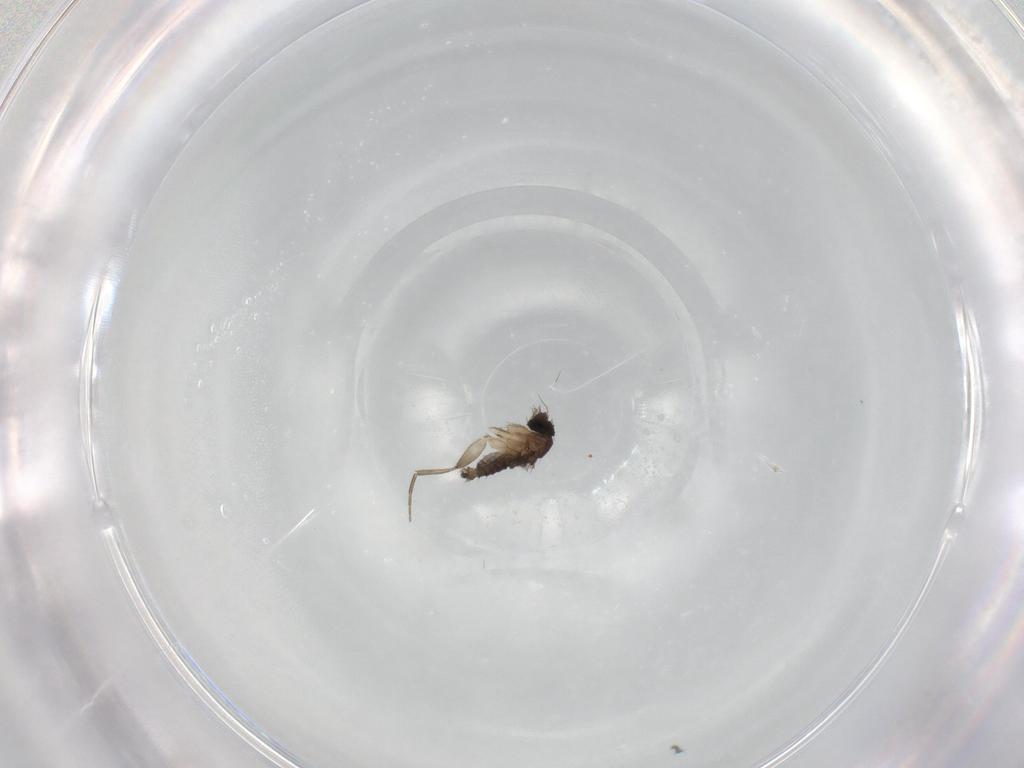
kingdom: Animalia
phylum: Arthropoda
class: Insecta
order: Diptera
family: Phoridae
